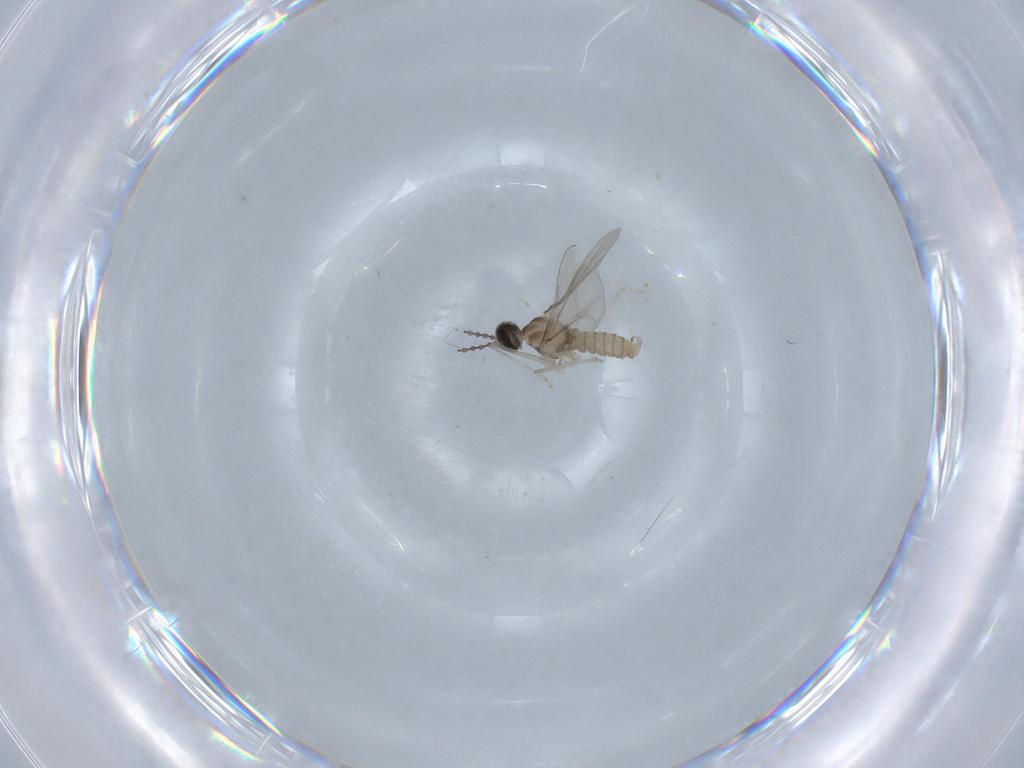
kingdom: Animalia
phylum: Arthropoda
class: Insecta
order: Diptera
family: Cecidomyiidae
